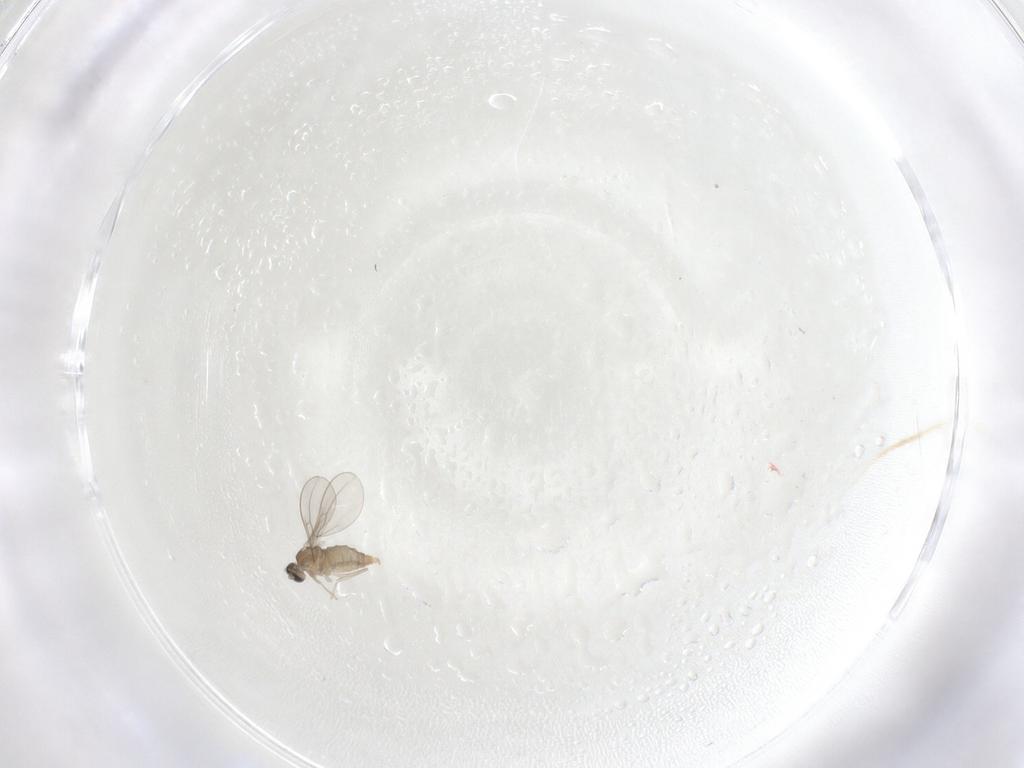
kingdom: Animalia
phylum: Arthropoda
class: Insecta
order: Diptera
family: Cecidomyiidae
